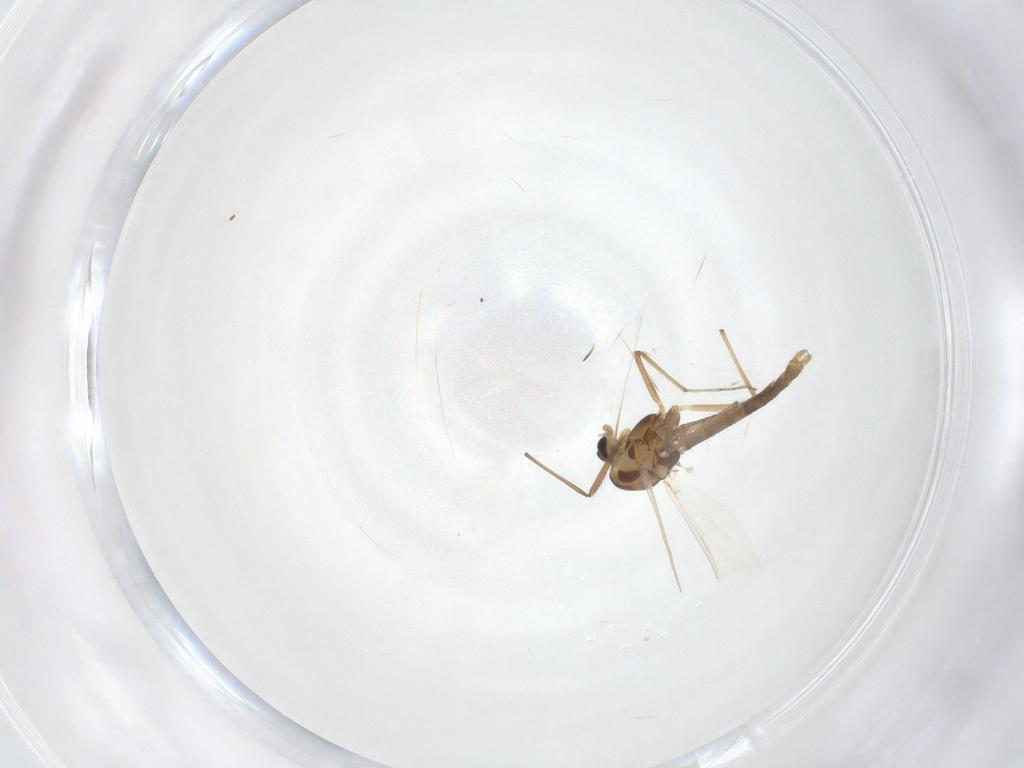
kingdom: Animalia
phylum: Arthropoda
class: Insecta
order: Diptera
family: Chironomidae
